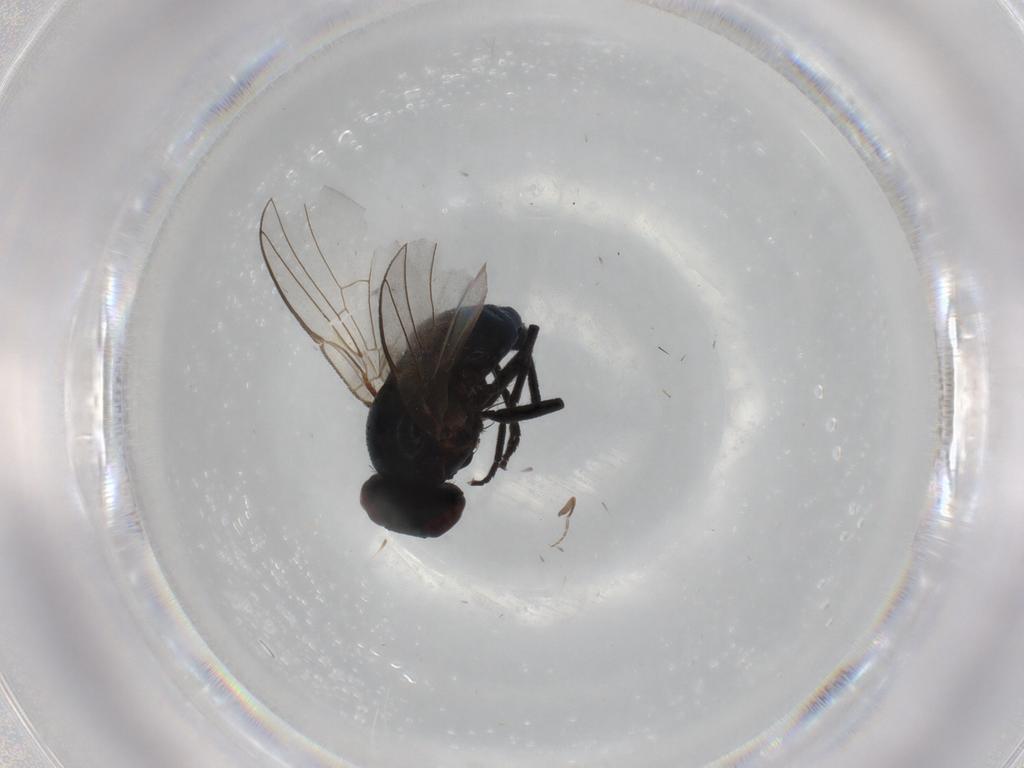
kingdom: Animalia
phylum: Arthropoda
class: Insecta
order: Diptera
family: Agromyzidae
